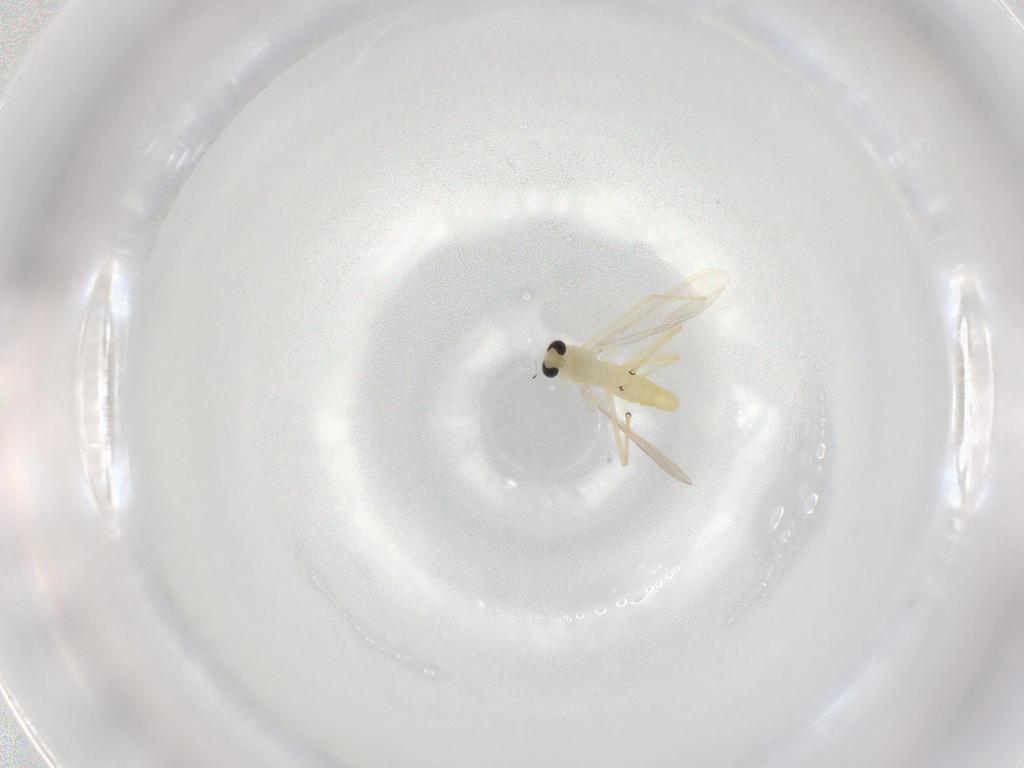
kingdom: Animalia
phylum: Arthropoda
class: Insecta
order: Diptera
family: Chironomidae
